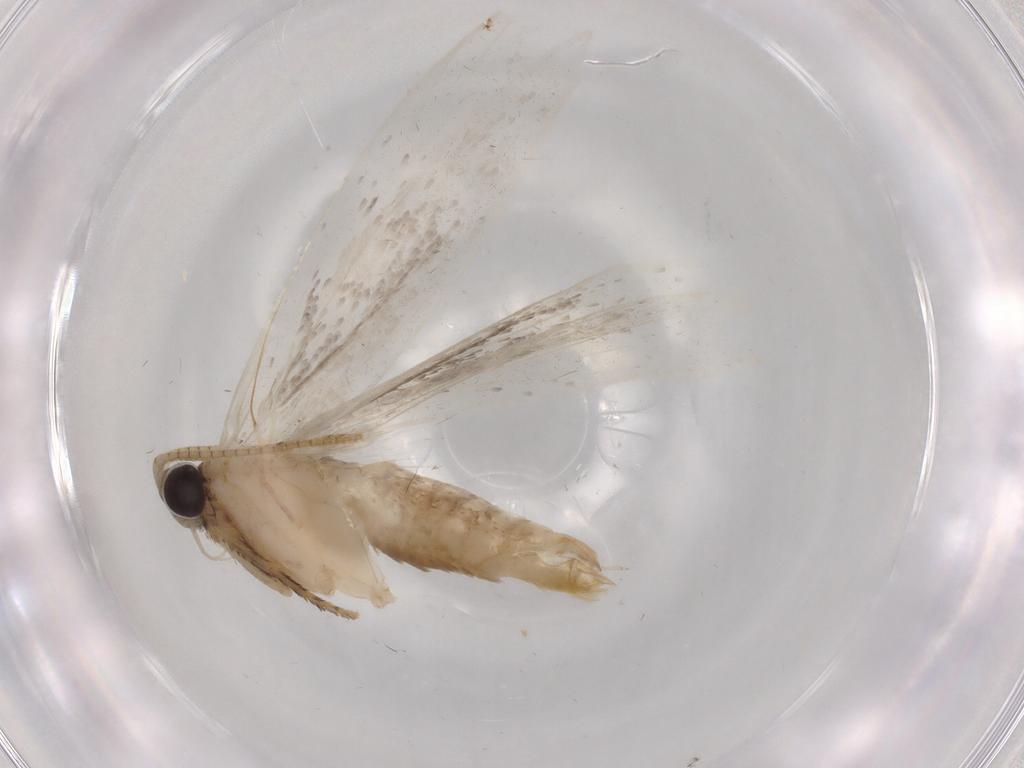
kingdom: Animalia
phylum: Arthropoda
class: Insecta
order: Lepidoptera
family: Tineidae
